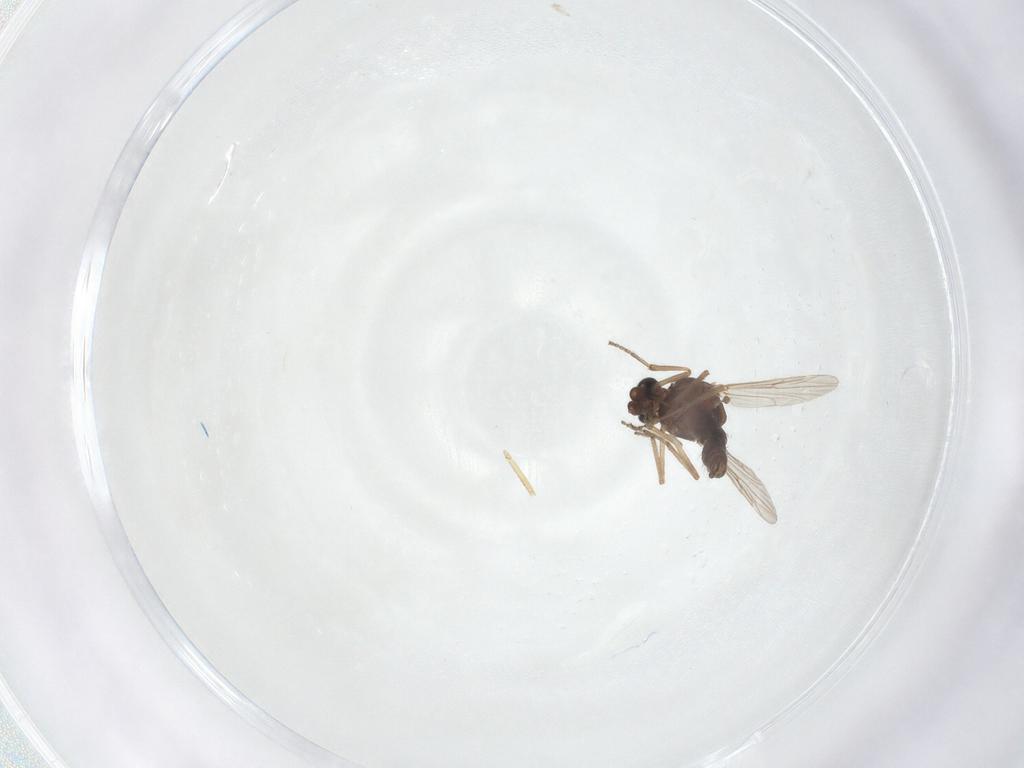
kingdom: Animalia
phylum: Arthropoda
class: Insecta
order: Diptera
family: Ceratopogonidae
